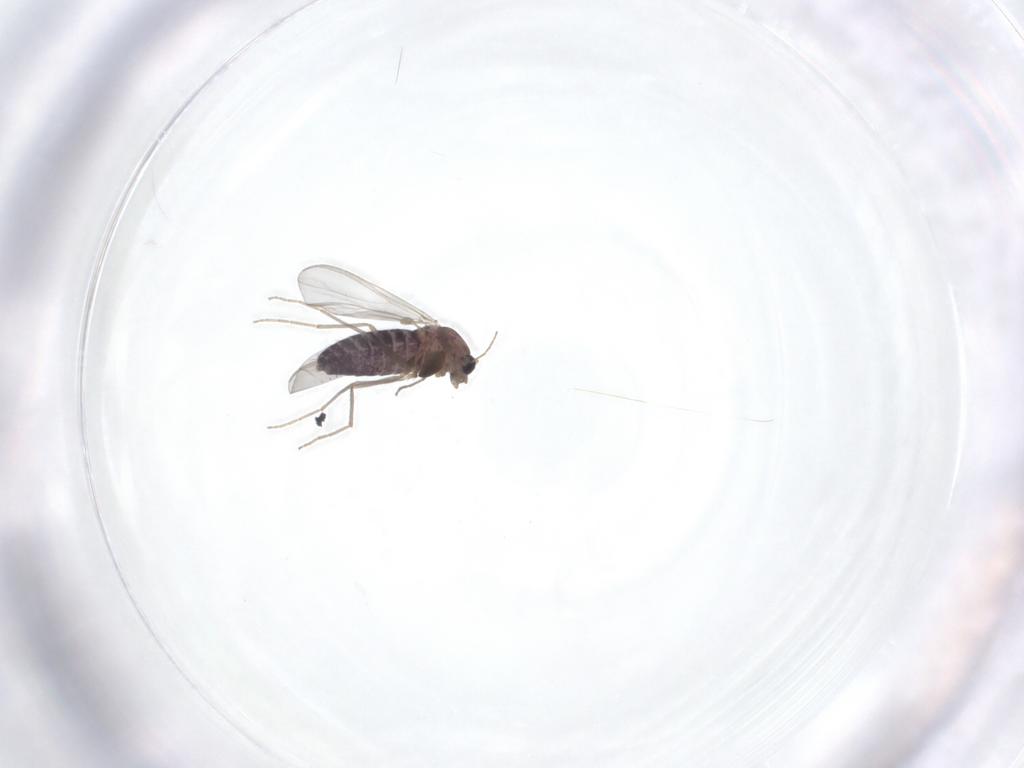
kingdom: Animalia
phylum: Arthropoda
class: Insecta
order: Diptera
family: Chironomidae
